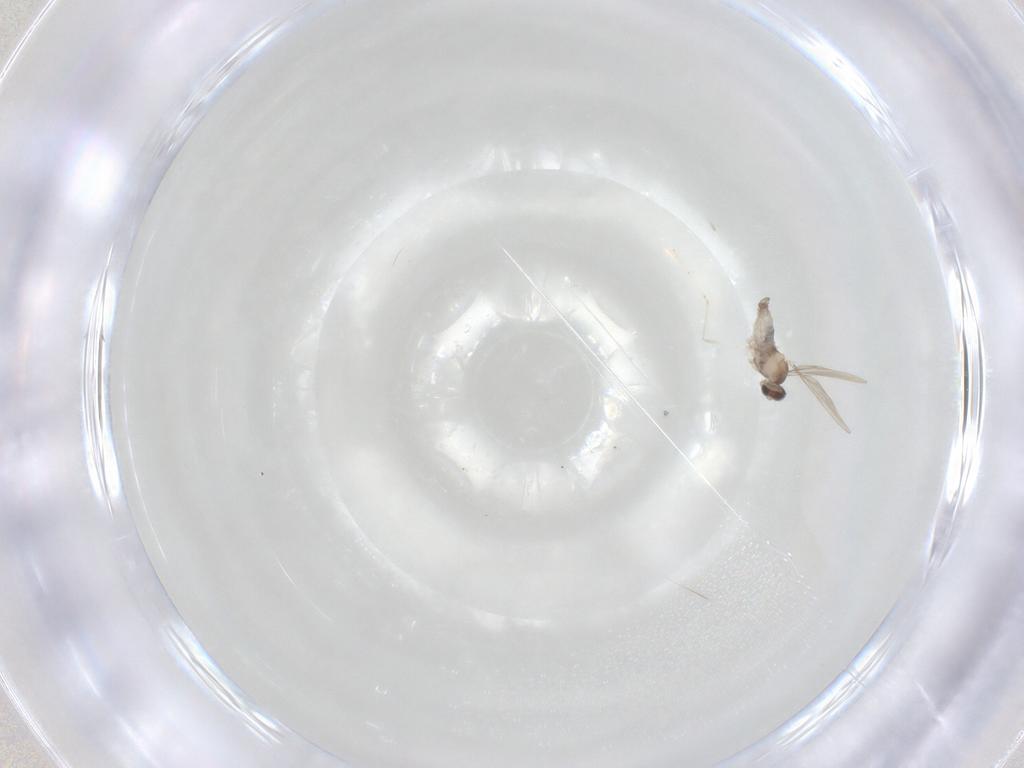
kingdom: Animalia
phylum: Arthropoda
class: Insecta
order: Diptera
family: Cecidomyiidae
